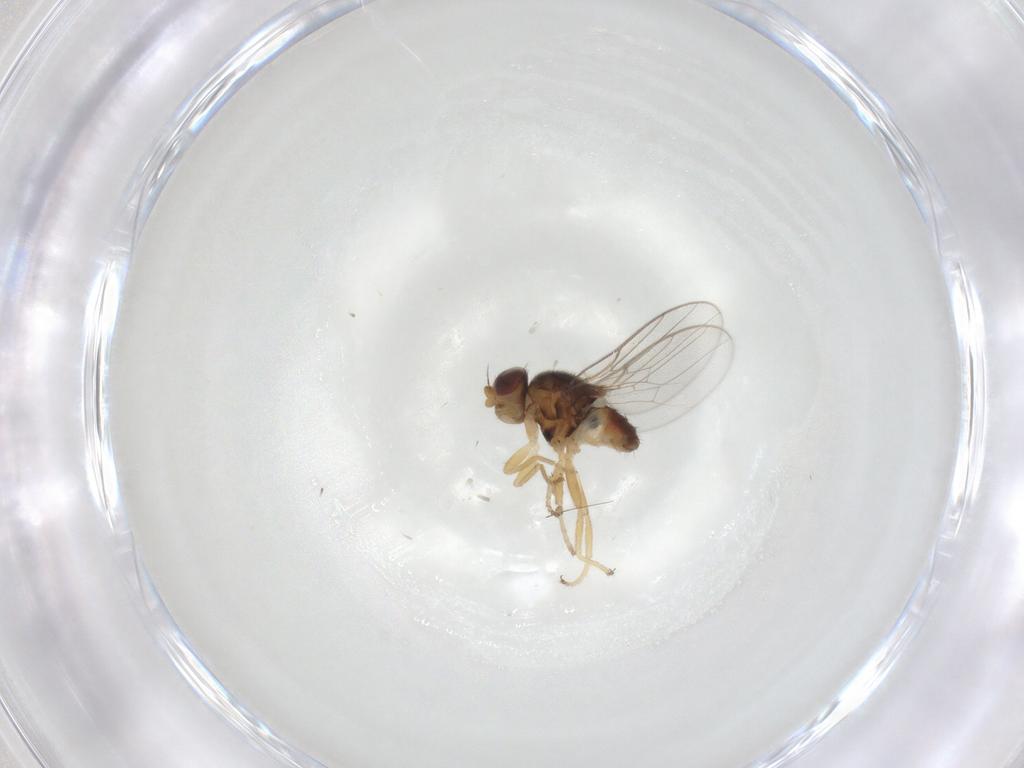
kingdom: Animalia
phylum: Arthropoda
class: Insecta
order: Diptera
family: Chloropidae
